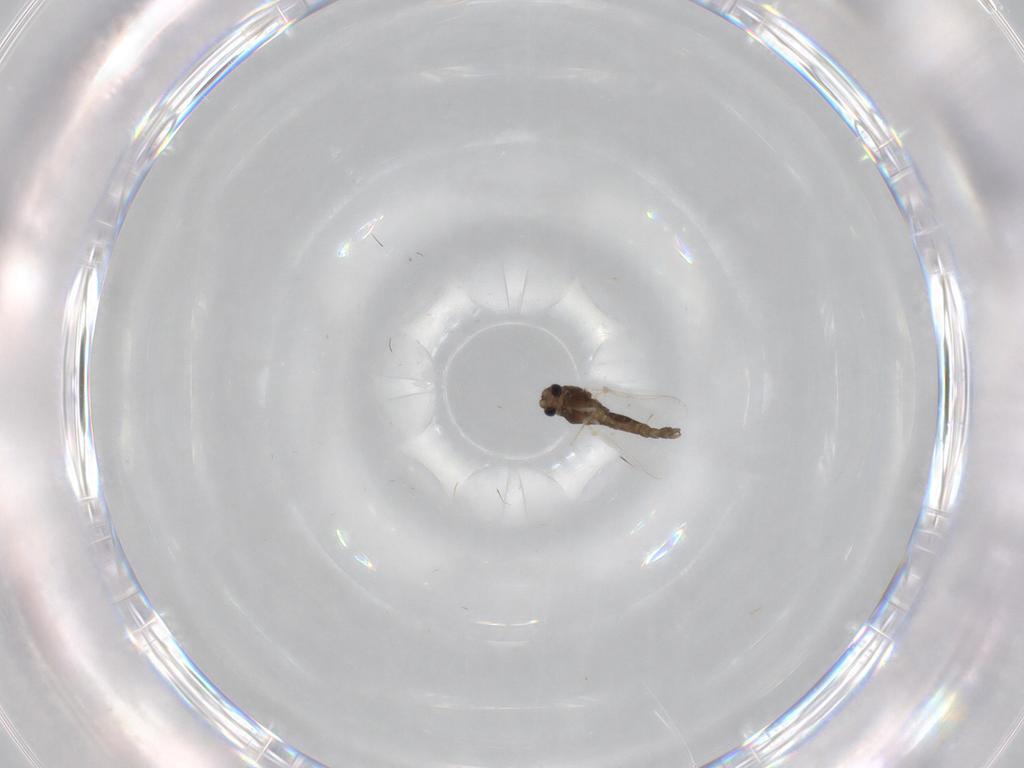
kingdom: Animalia
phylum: Arthropoda
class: Insecta
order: Diptera
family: Chironomidae
